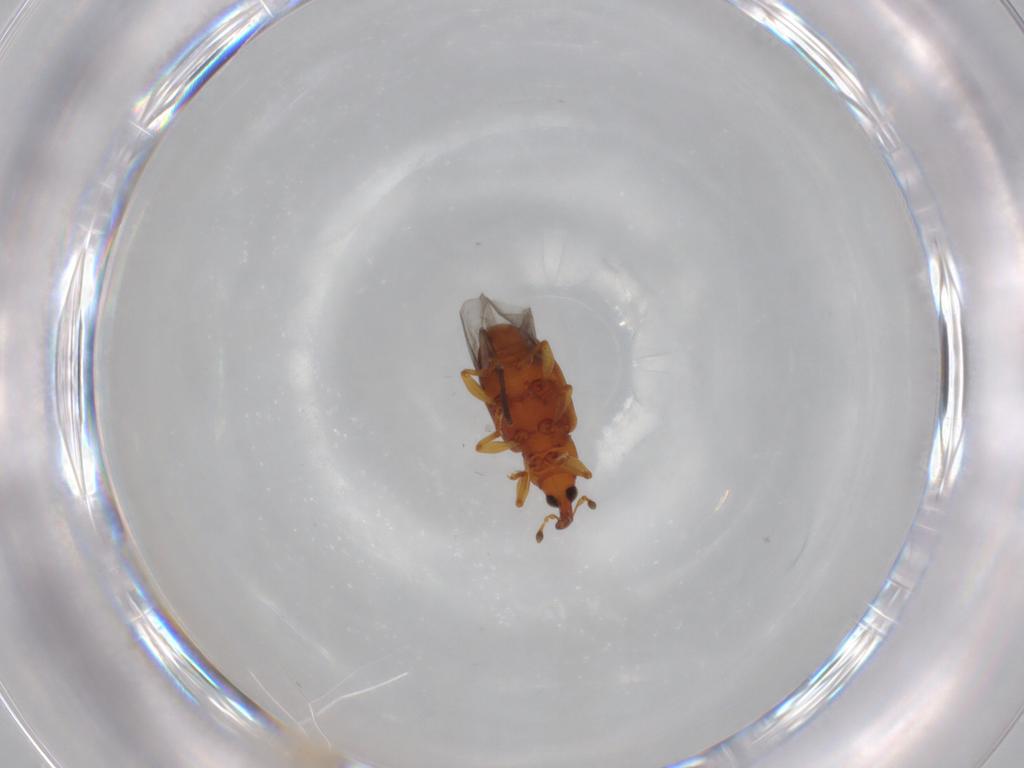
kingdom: Animalia
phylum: Arthropoda
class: Insecta
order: Coleoptera
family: Curculionidae
